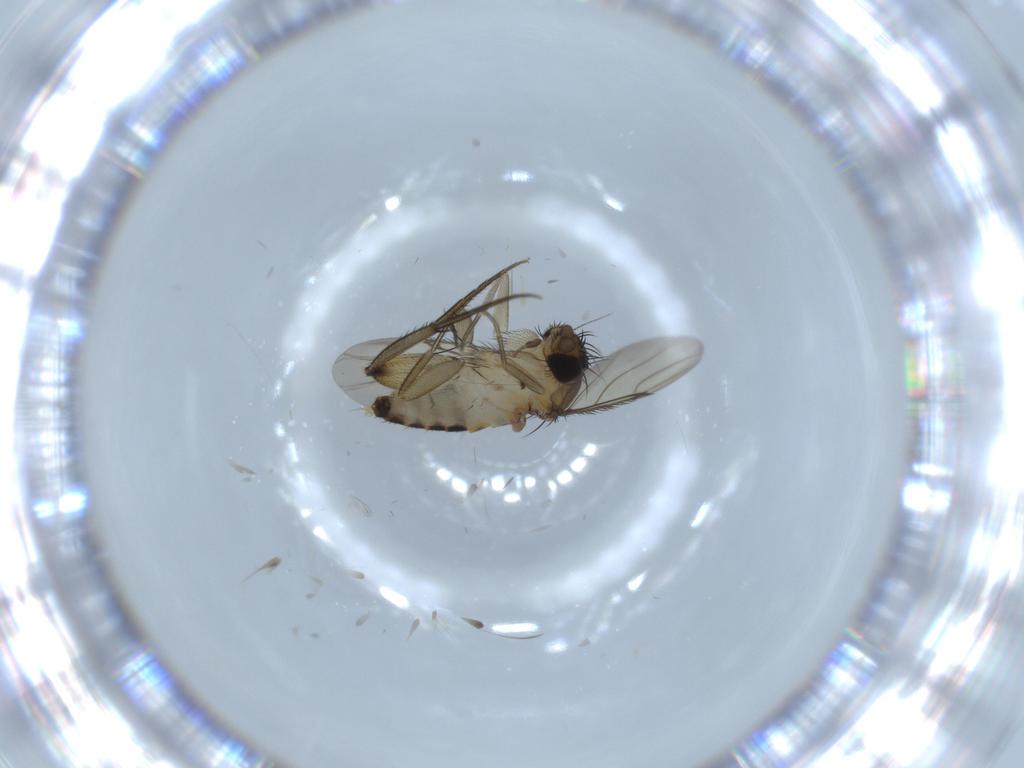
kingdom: Animalia
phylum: Arthropoda
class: Insecta
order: Diptera
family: Phoridae
